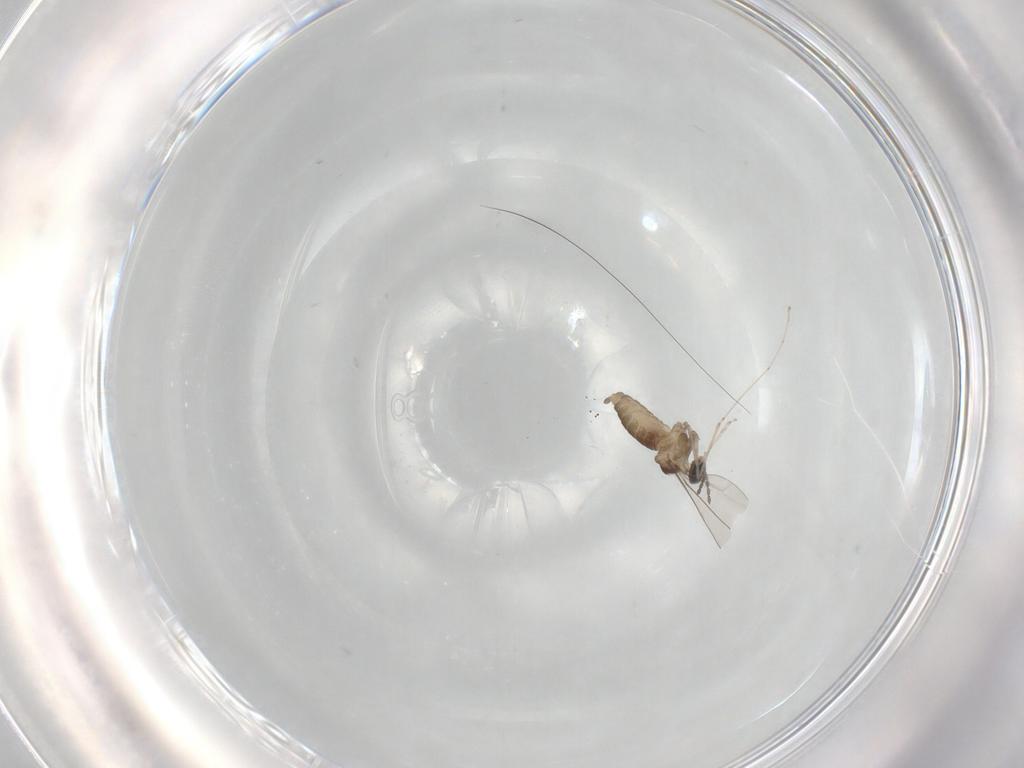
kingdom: Animalia
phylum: Arthropoda
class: Insecta
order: Diptera
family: Cecidomyiidae
